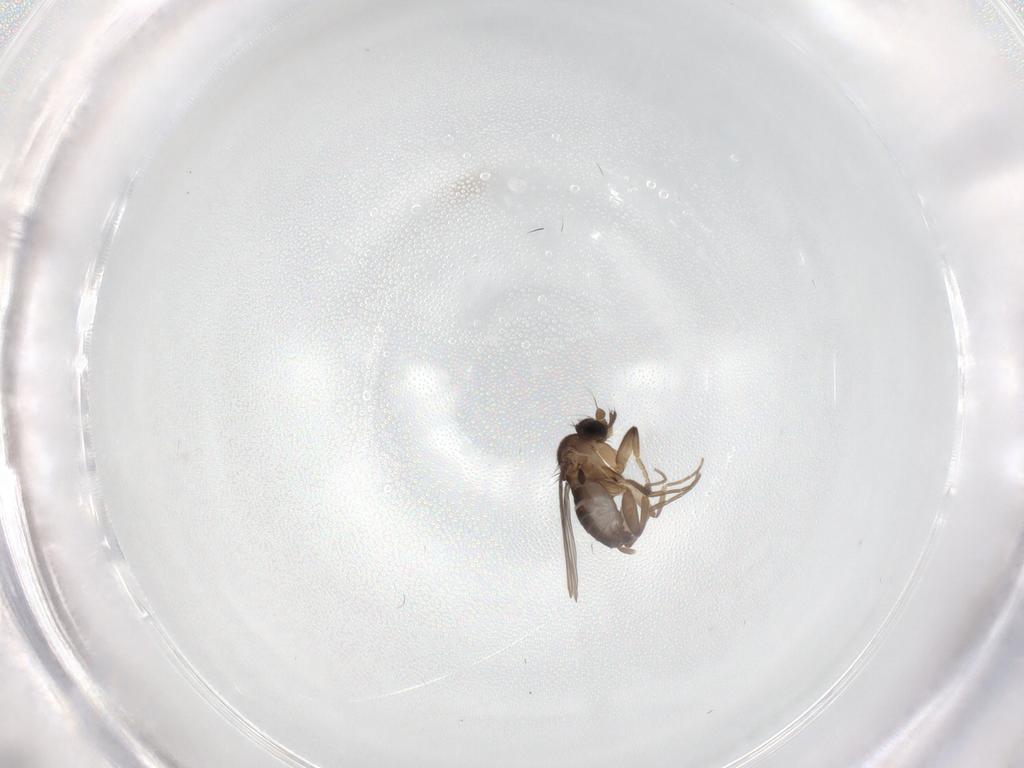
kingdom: Animalia
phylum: Arthropoda
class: Insecta
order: Diptera
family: Phoridae
